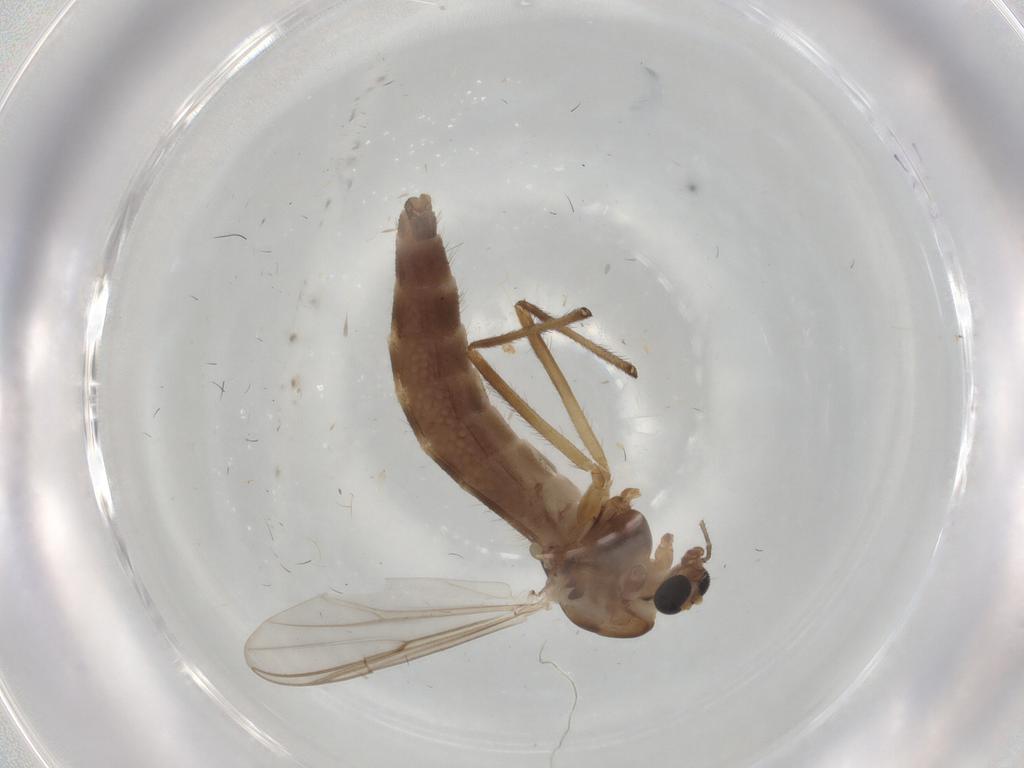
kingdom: Animalia
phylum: Arthropoda
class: Insecta
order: Diptera
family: Chironomidae
